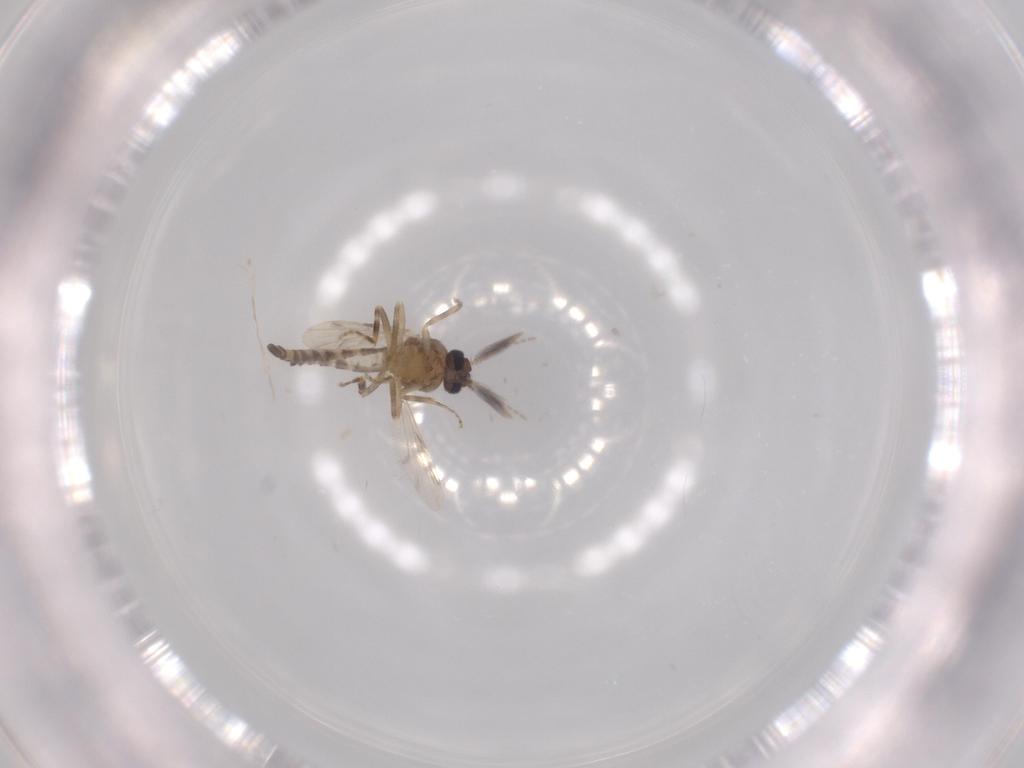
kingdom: Animalia
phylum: Arthropoda
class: Insecta
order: Diptera
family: Ceratopogonidae
